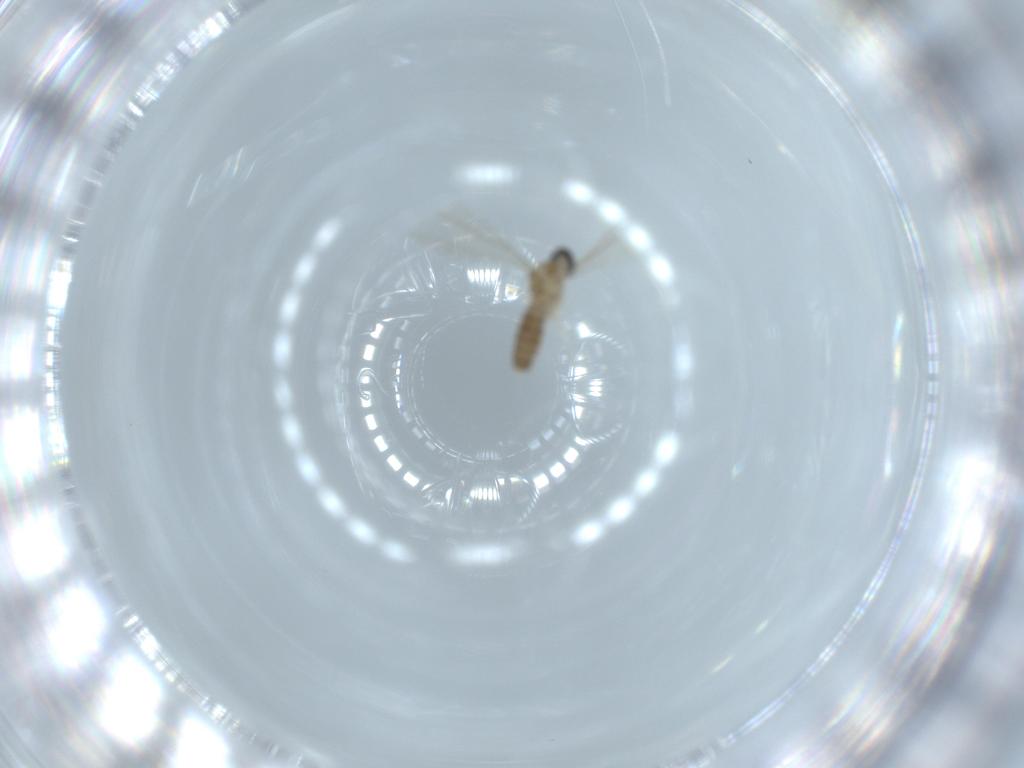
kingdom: Animalia
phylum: Arthropoda
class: Insecta
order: Diptera
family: Cecidomyiidae
